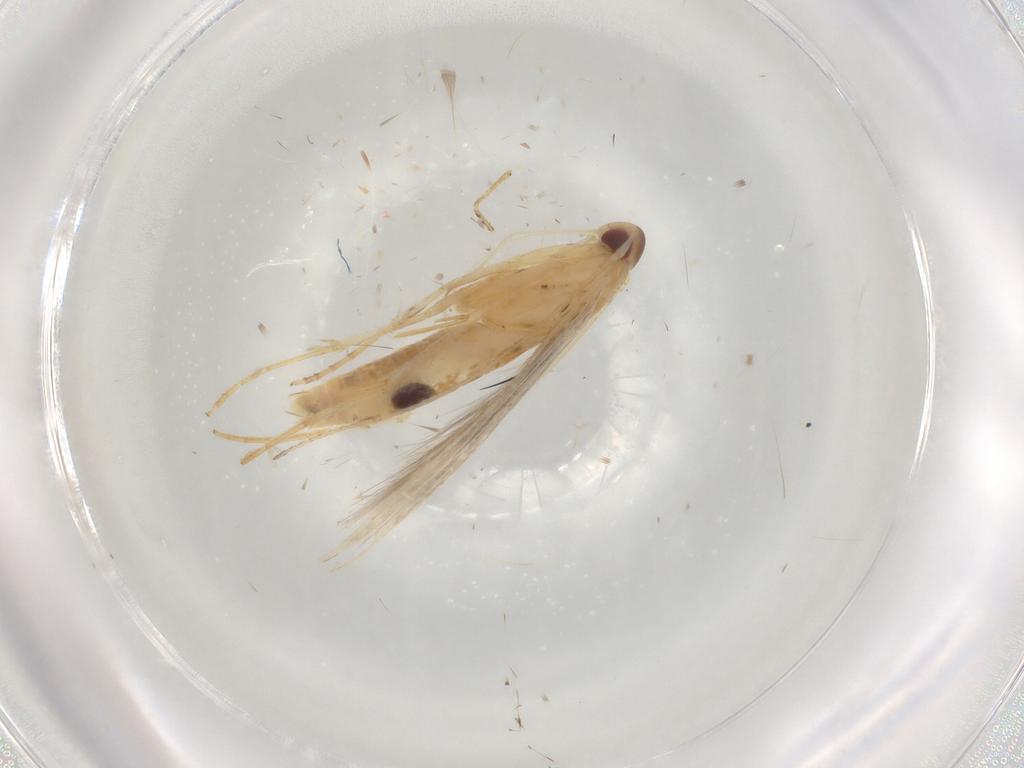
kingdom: Animalia
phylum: Arthropoda
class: Insecta
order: Lepidoptera
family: Cosmopterigidae
